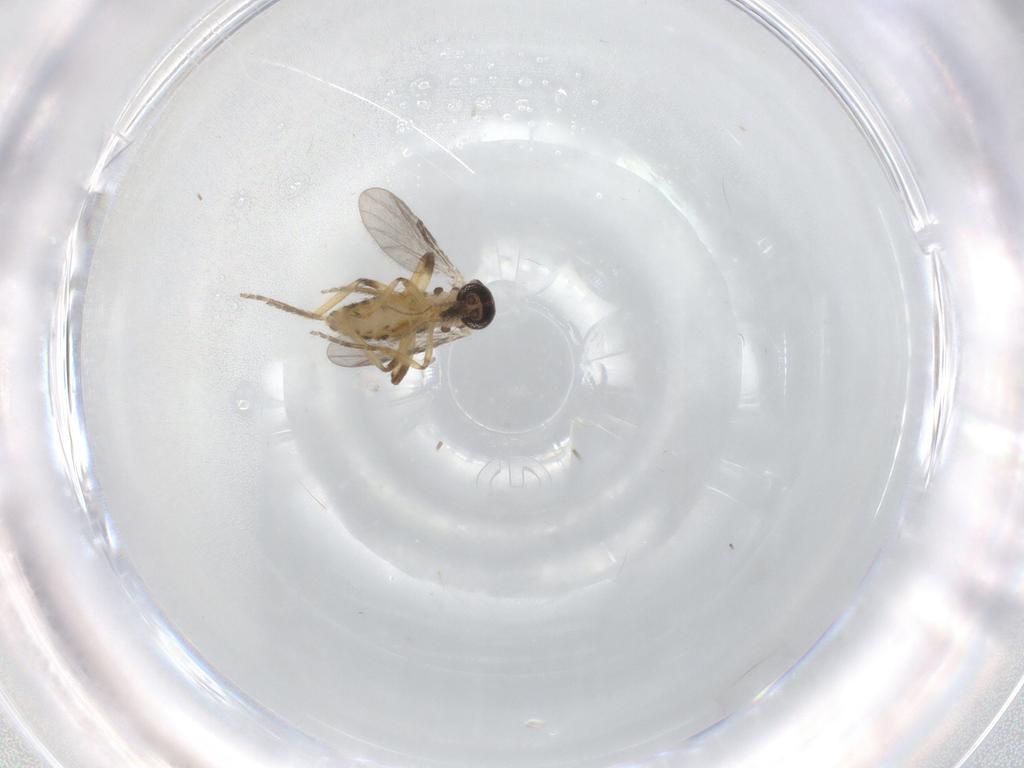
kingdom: Animalia
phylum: Arthropoda
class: Insecta
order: Diptera
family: Ceratopogonidae
